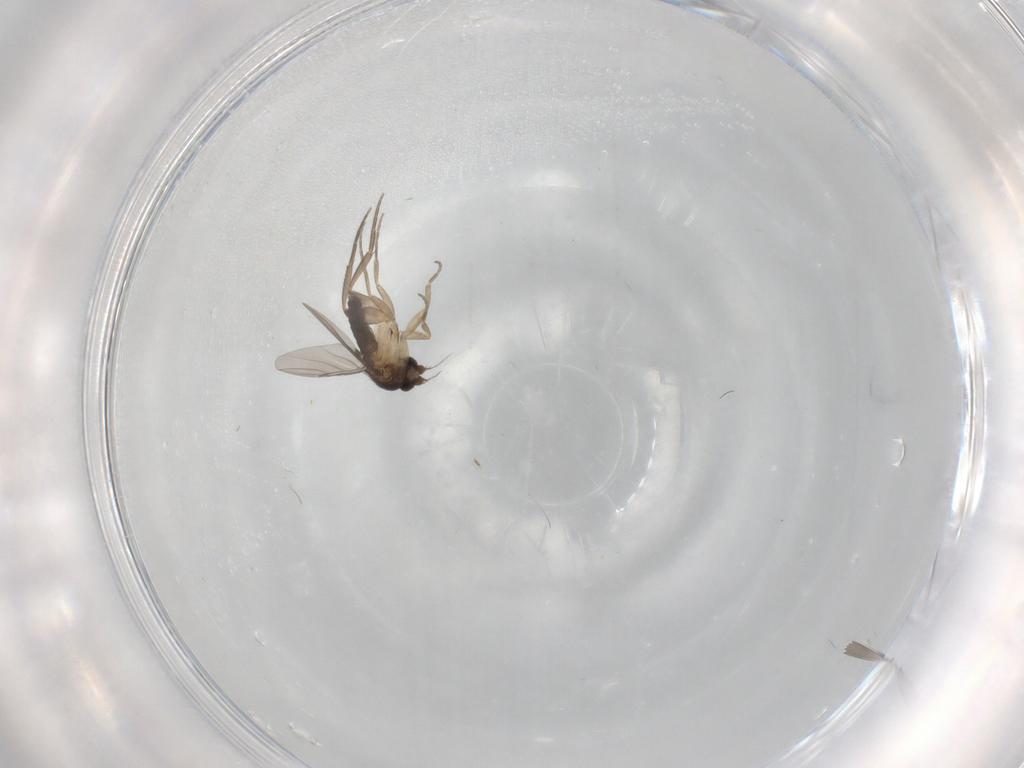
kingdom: Animalia
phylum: Arthropoda
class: Insecta
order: Diptera
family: Phoridae
